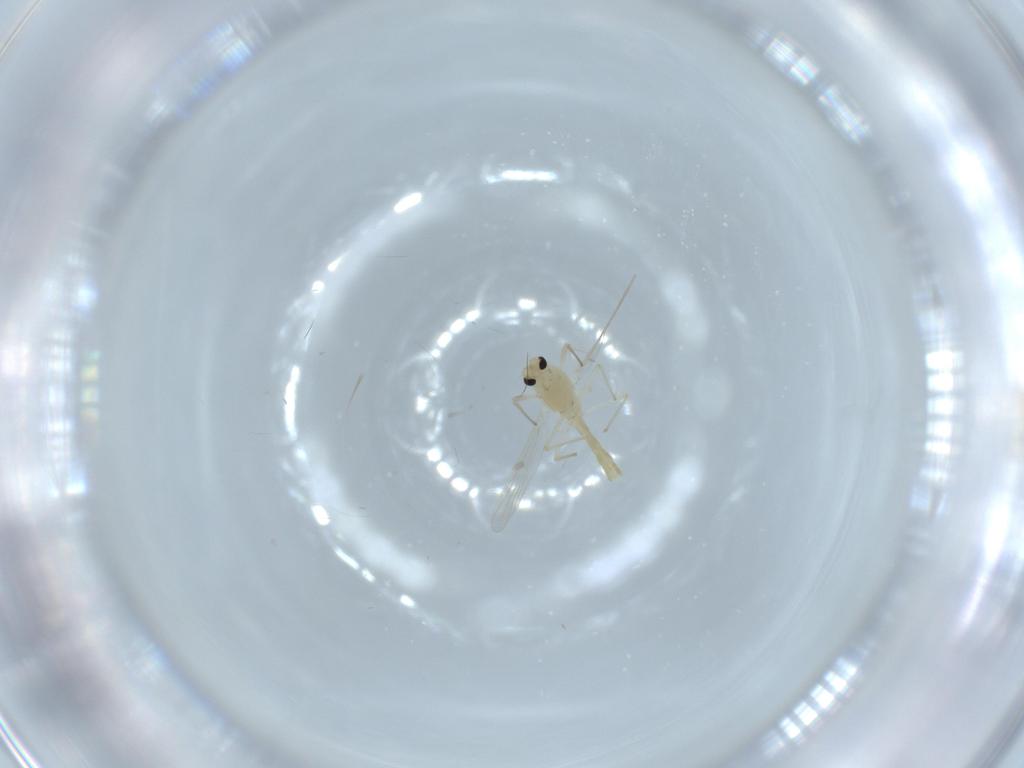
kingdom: Animalia
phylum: Arthropoda
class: Insecta
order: Diptera
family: Chironomidae
